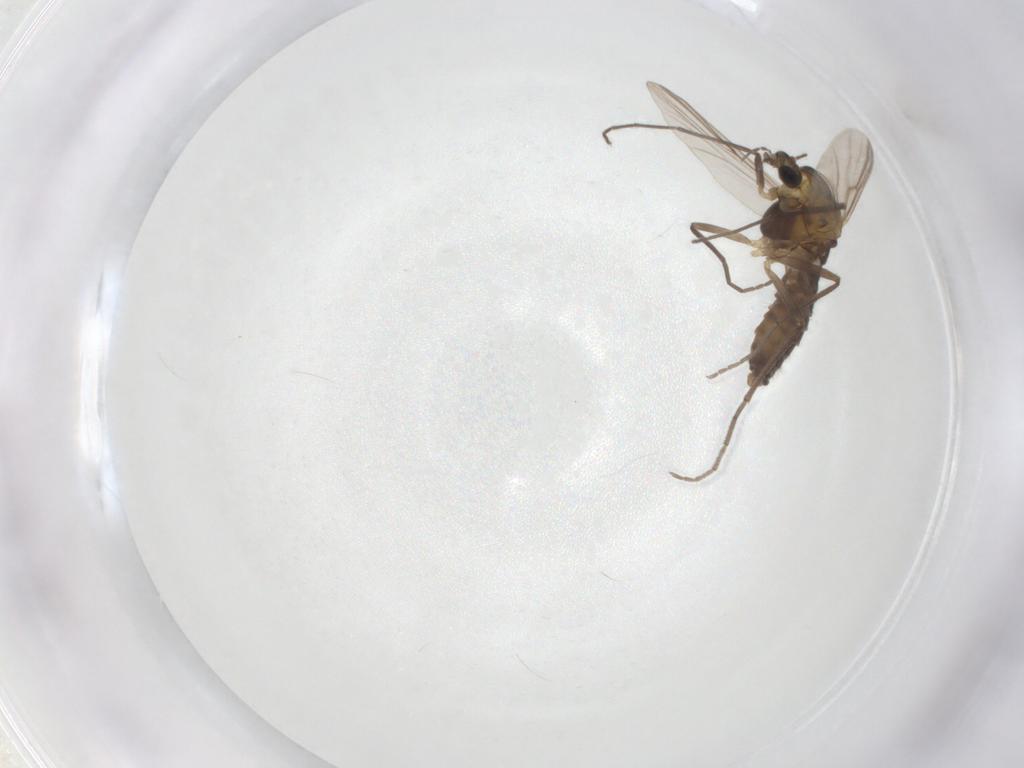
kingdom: Animalia
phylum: Arthropoda
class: Insecta
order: Diptera
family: Chironomidae
